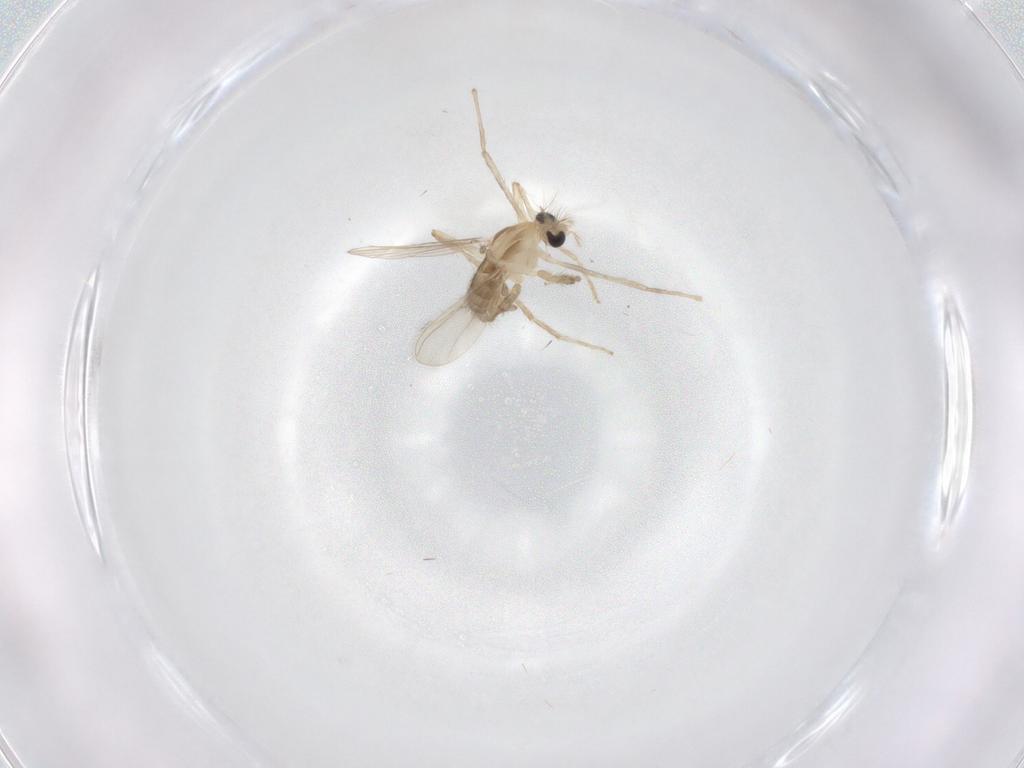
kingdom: Animalia
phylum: Arthropoda
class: Insecta
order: Diptera
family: Chironomidae
